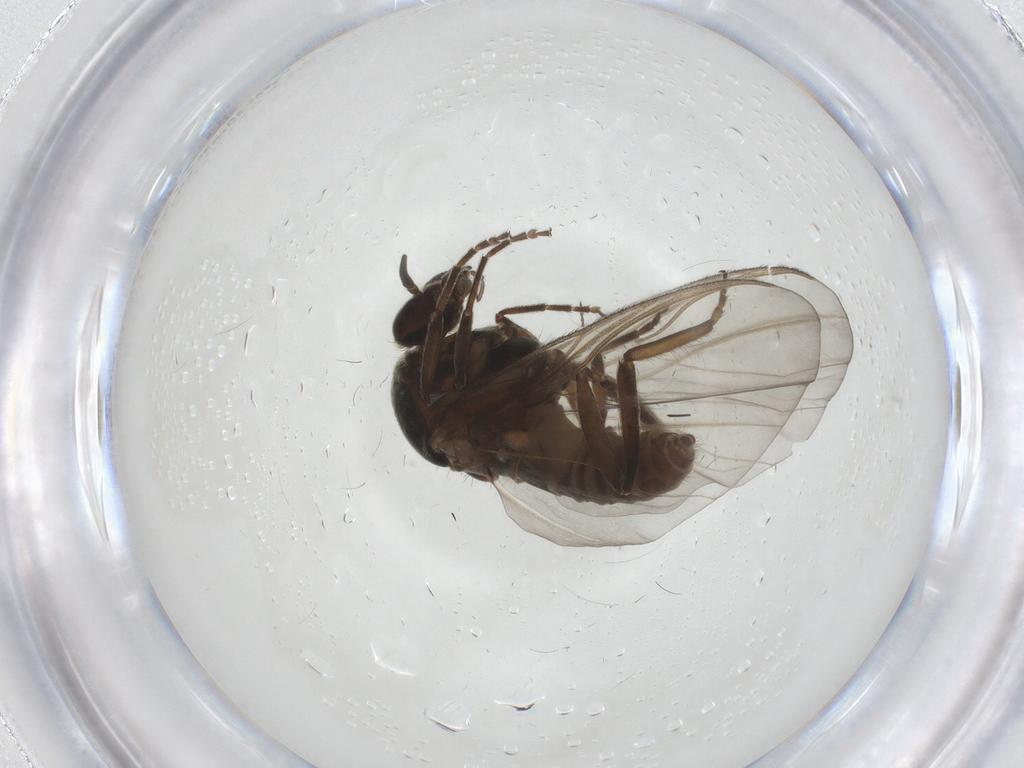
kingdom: Animalia
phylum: Arthropoda
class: Insecta
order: Diptera
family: Simuliidae
